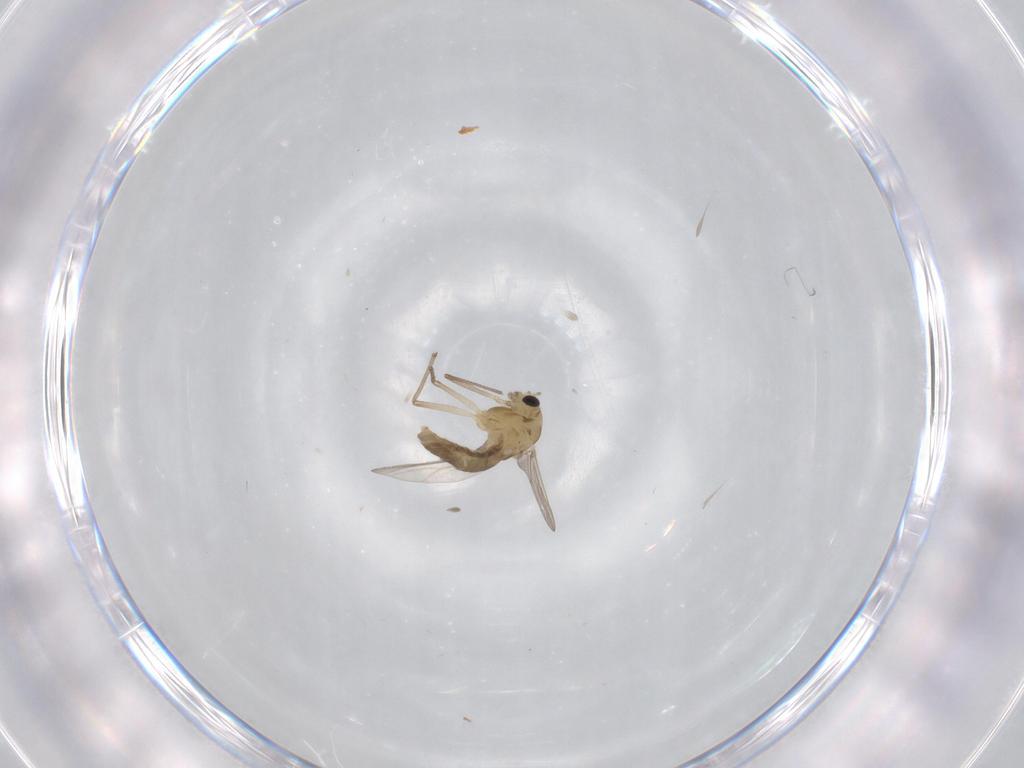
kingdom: Animalia
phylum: Arthropoda
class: Insecta
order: Diptera
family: Chironomidae
